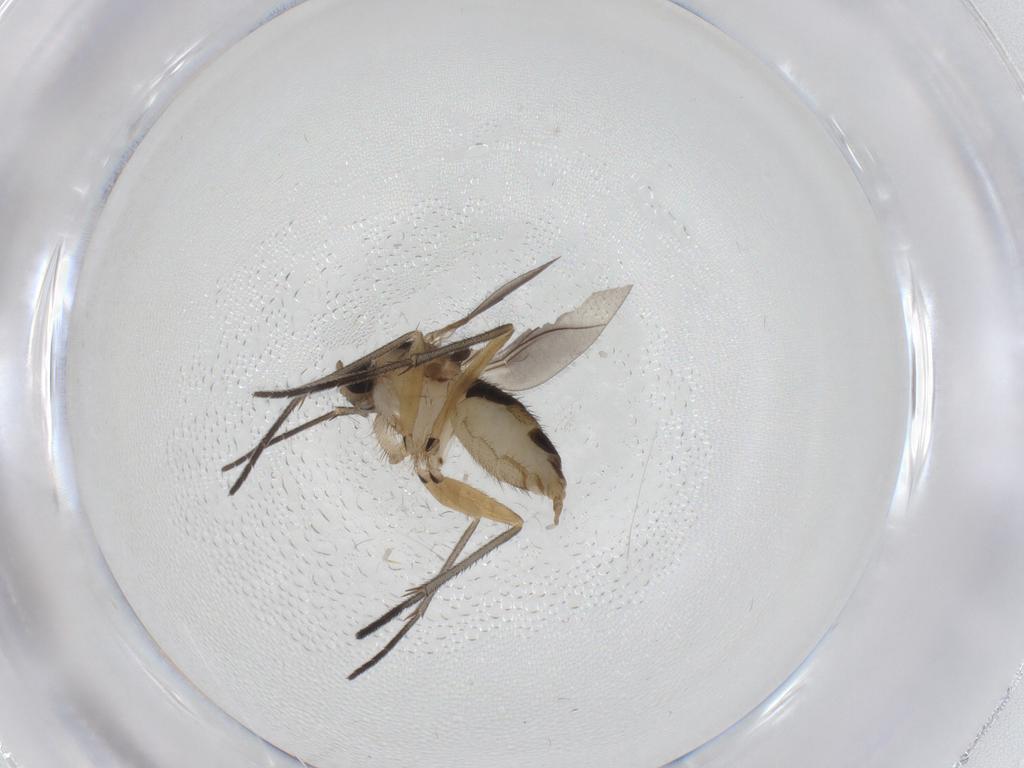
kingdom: Animalia
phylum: Arthropoda
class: Insecta
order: Diptera
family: Sciaridae
